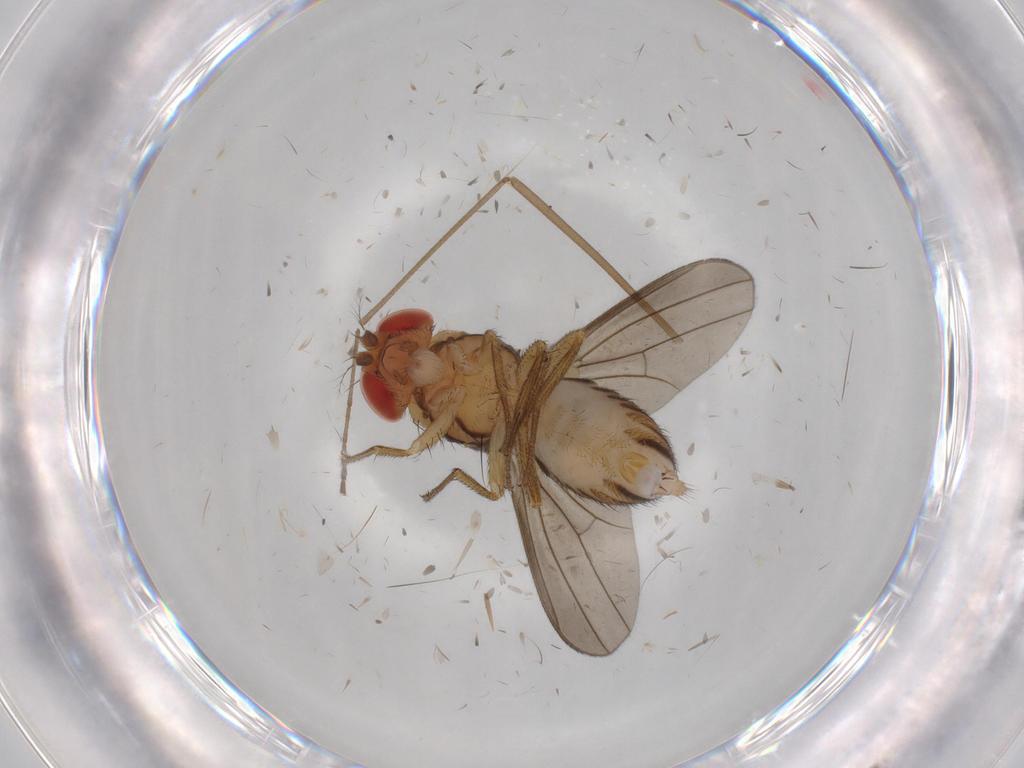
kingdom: Animalia
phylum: Arthropoda
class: Insecta
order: Diptera
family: Drosophilidae
